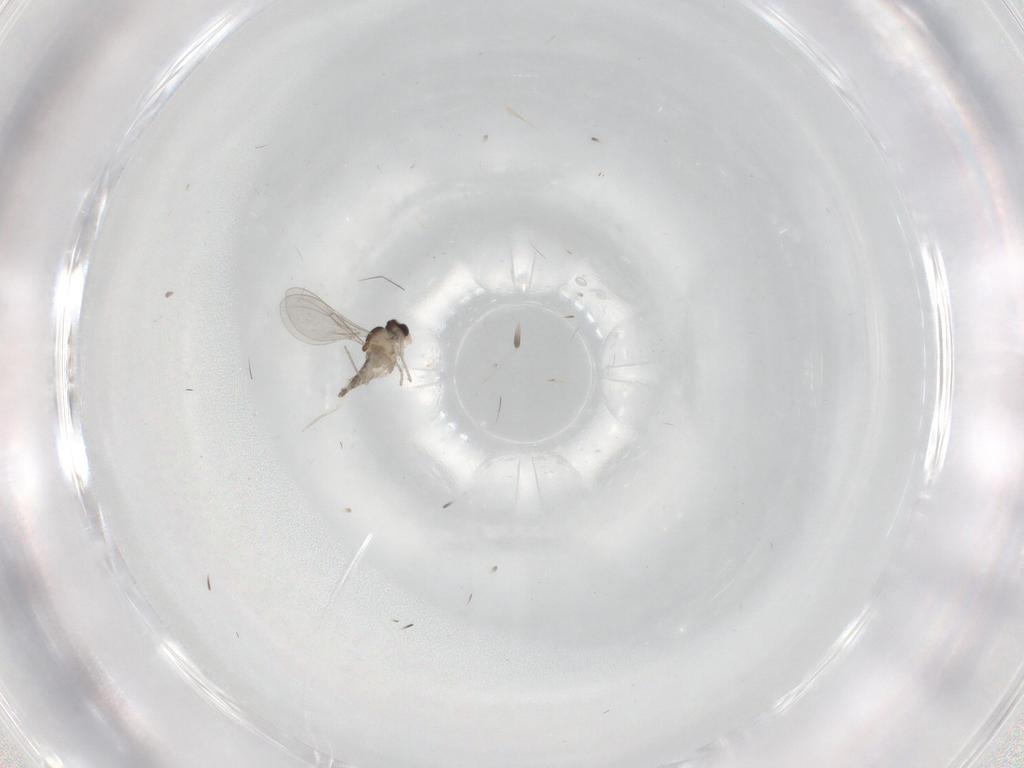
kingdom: Animalia
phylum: Arthropoda
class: Insecta
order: Diptera
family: Cecidomyiidae
